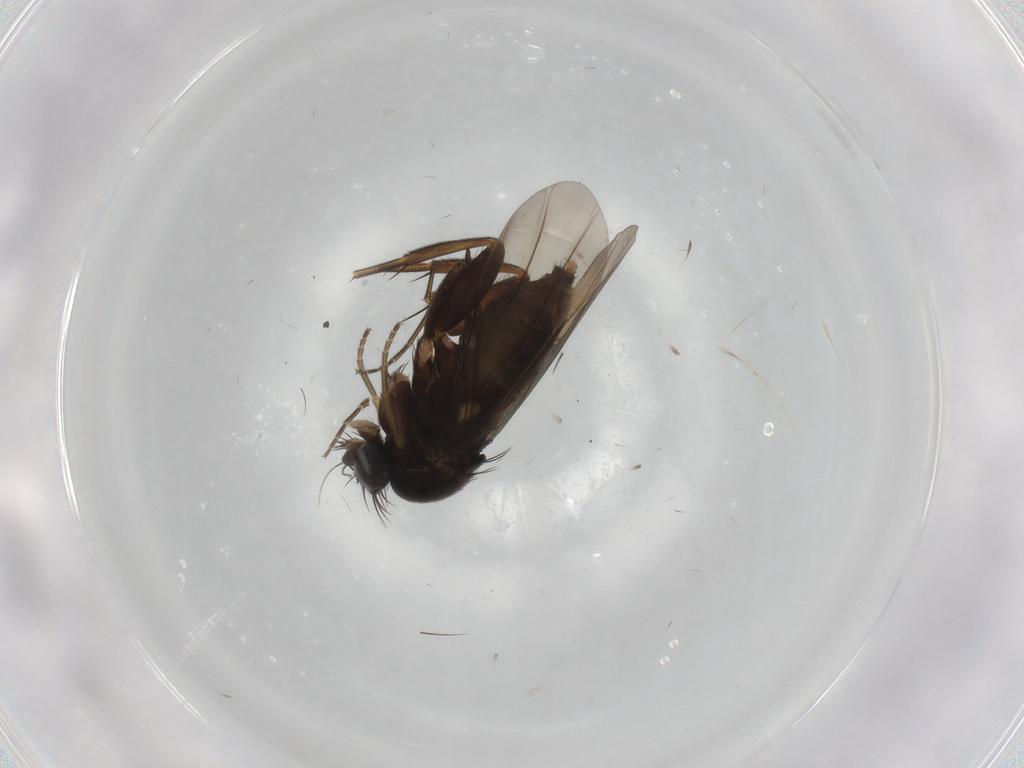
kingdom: Animalia
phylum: Arthropoda
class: Insecta
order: Diptera
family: Phoridae
